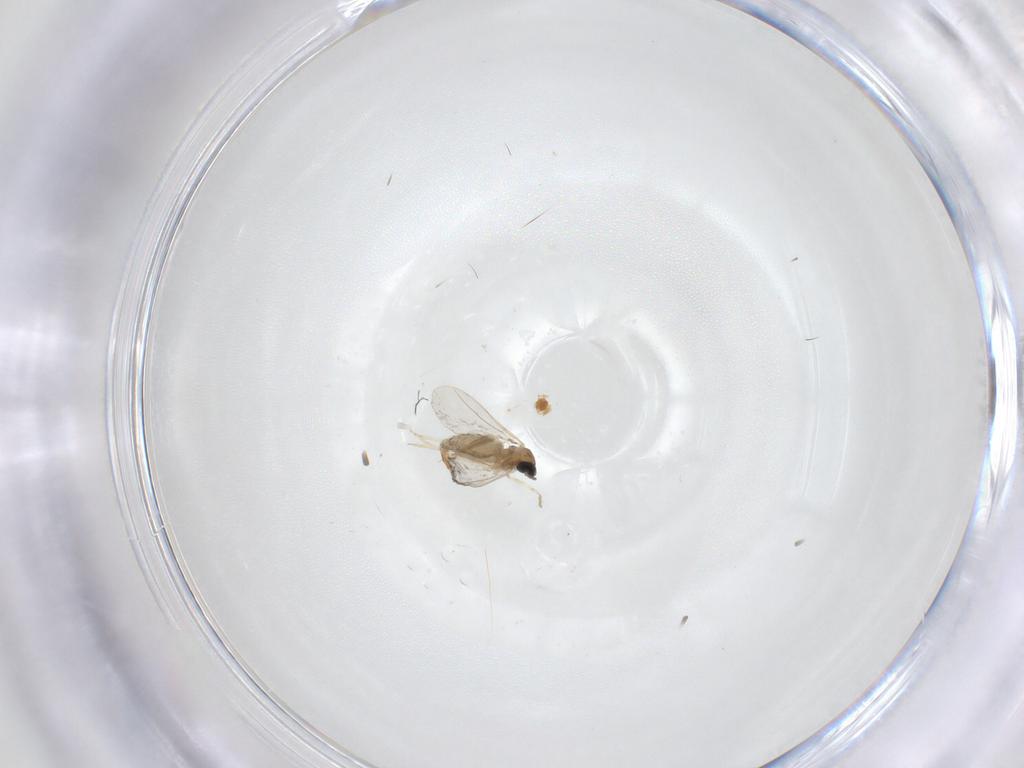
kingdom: Animalia
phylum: Arthropoda
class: Insecta
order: Diptera
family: Cecidomyiidae
